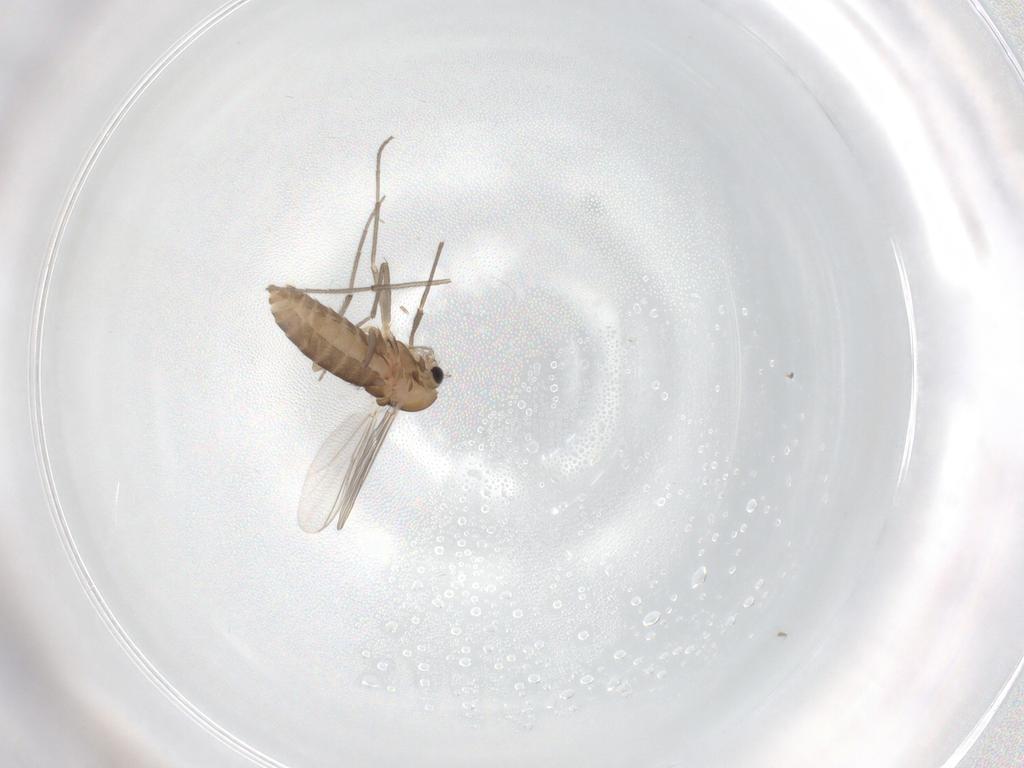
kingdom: Animalia
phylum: Arthropoda
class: Insecta
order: Diptera
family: Chironomidae
